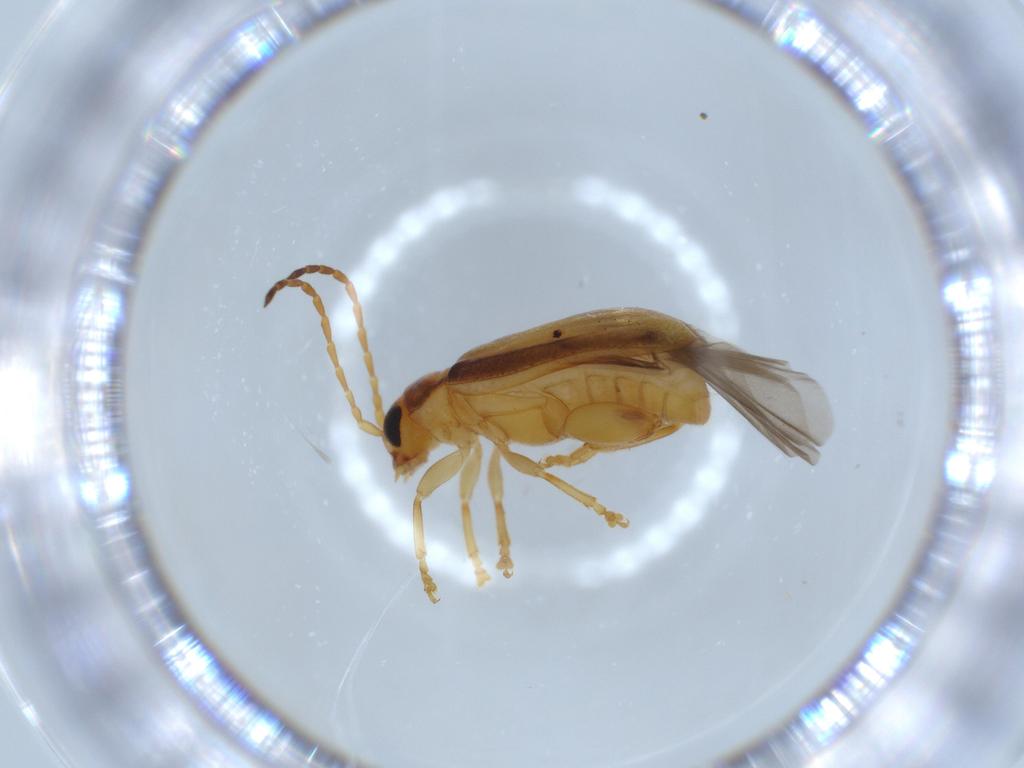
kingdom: Animalia
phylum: Arthropoda
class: Insecta
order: Coleoptera
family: Chrysomelidae
